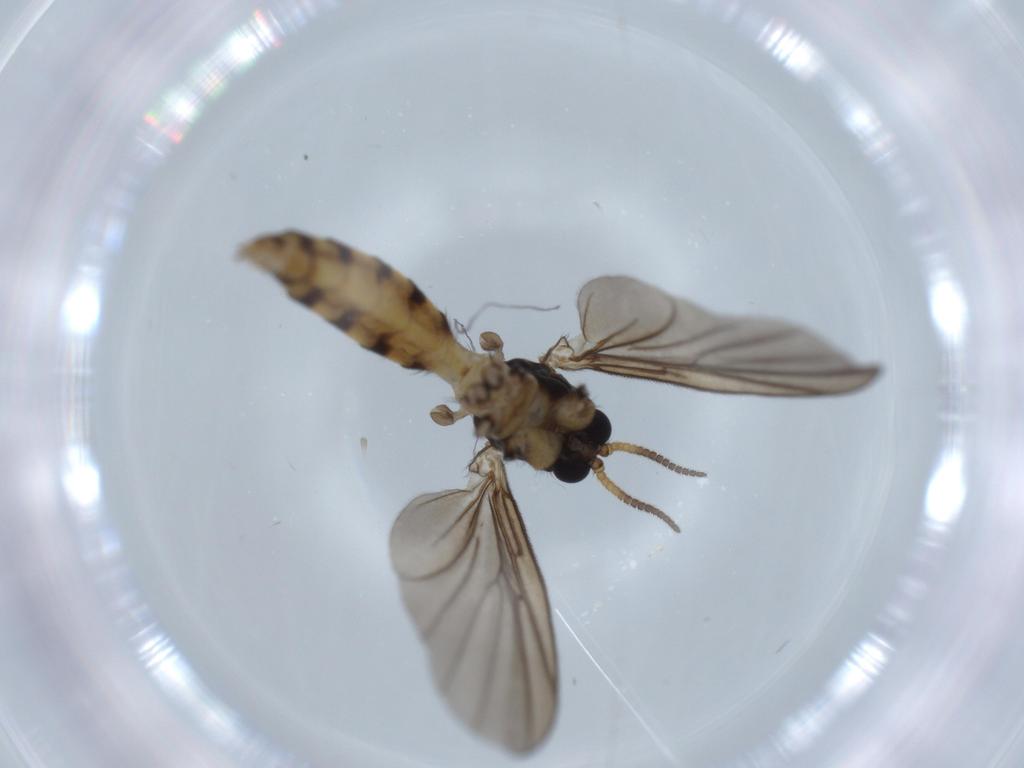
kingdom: Animalia
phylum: Arthropoda
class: Insecta
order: Diptera
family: Mycetophilidae
